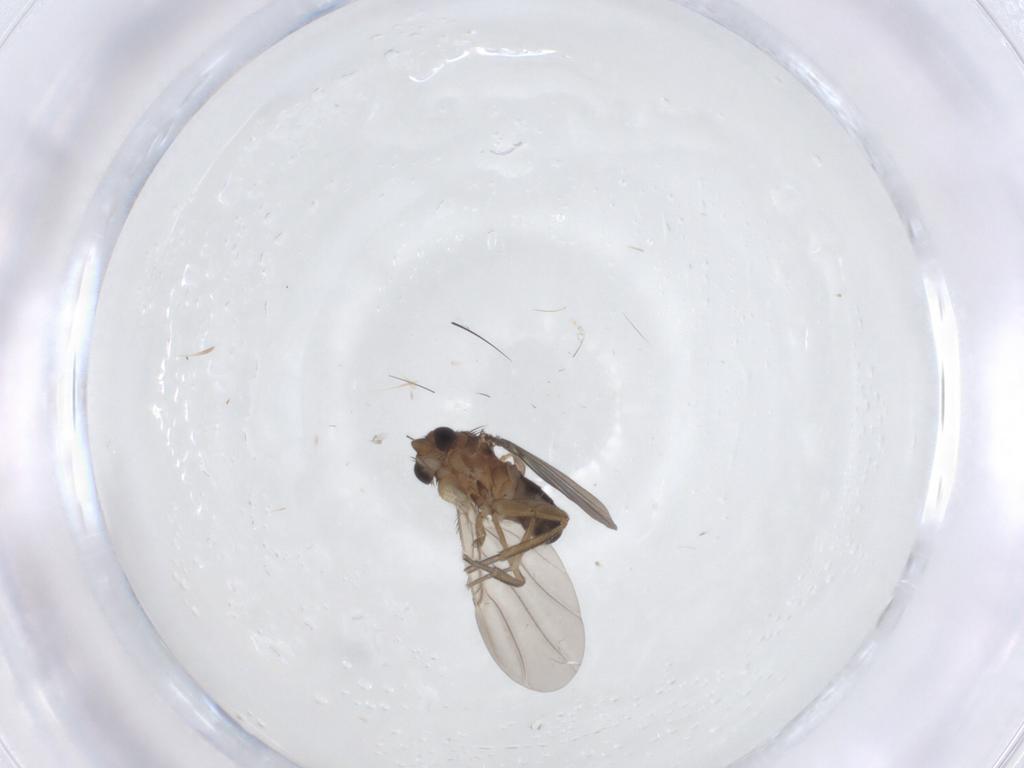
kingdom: Animalia
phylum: Arthropoda
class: Insecta
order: Diptera
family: Phoridae
